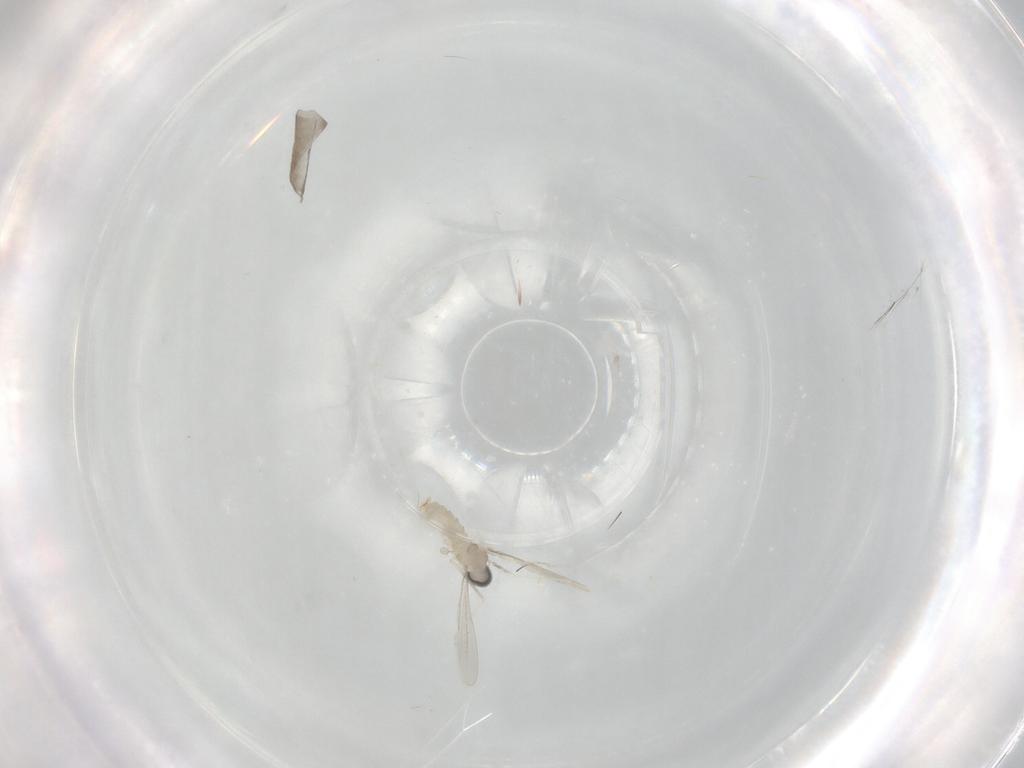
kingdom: Animalia
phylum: Arthropoda
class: Insecta
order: Diptera
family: Cecidomyiidae
